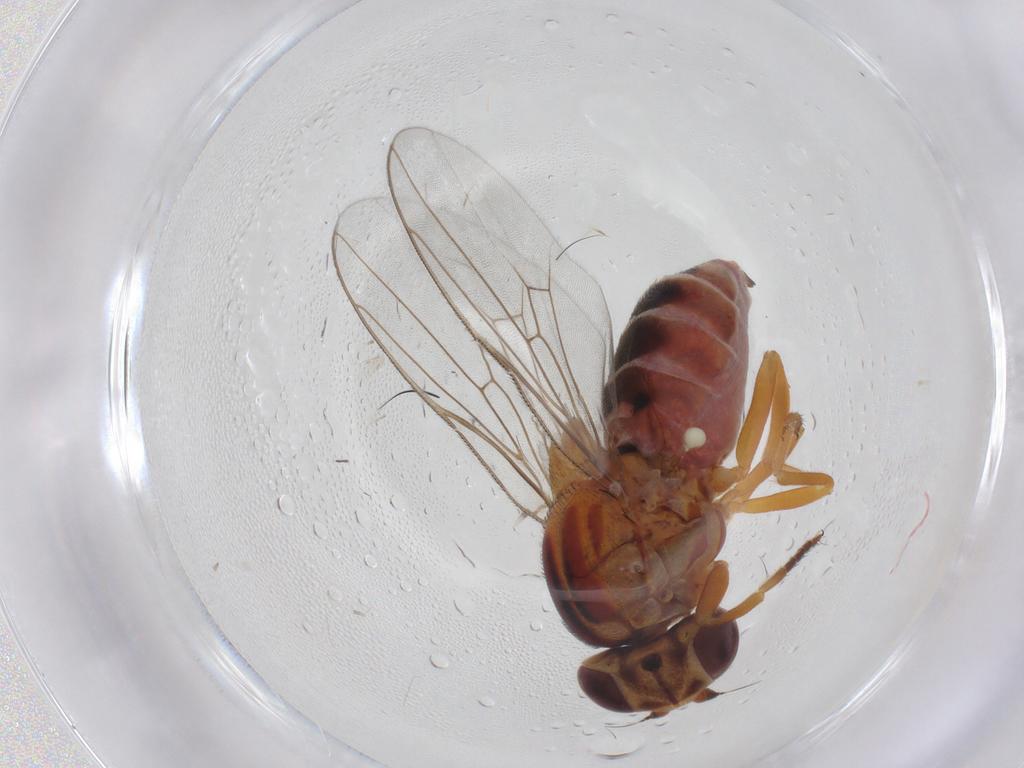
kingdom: Animalia
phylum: Arthropoda
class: Insecta
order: Diptera
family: Chloropidae
